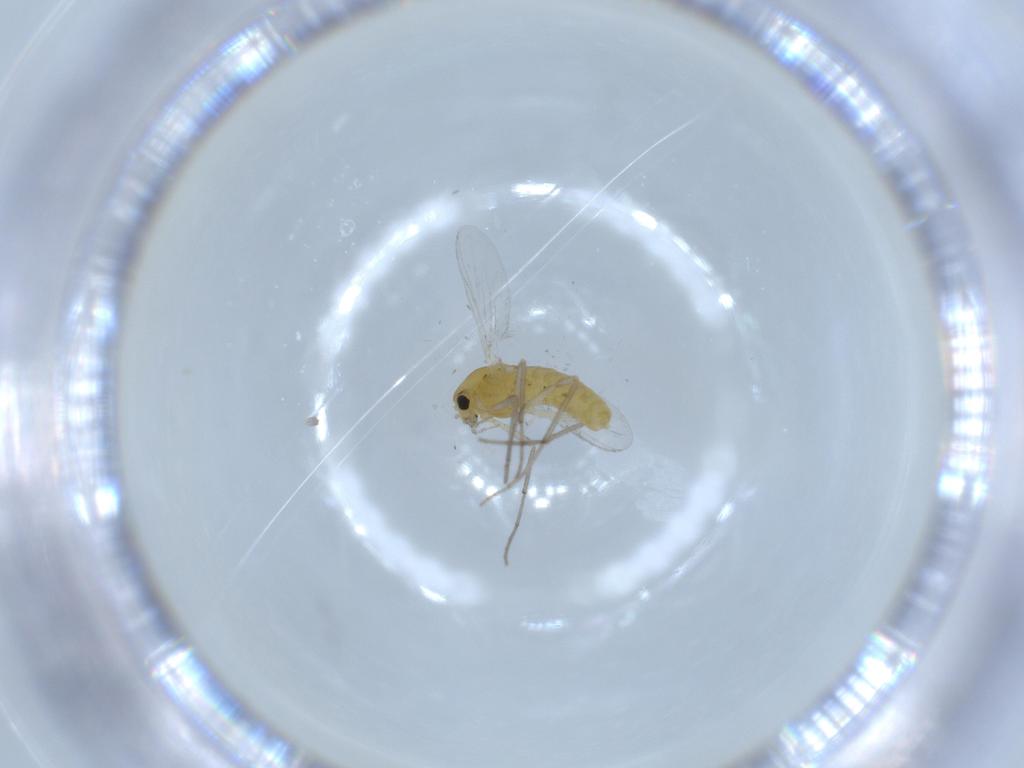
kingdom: Animalia
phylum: Arthropoda
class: Insecta
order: Diptera
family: Chironomidae
